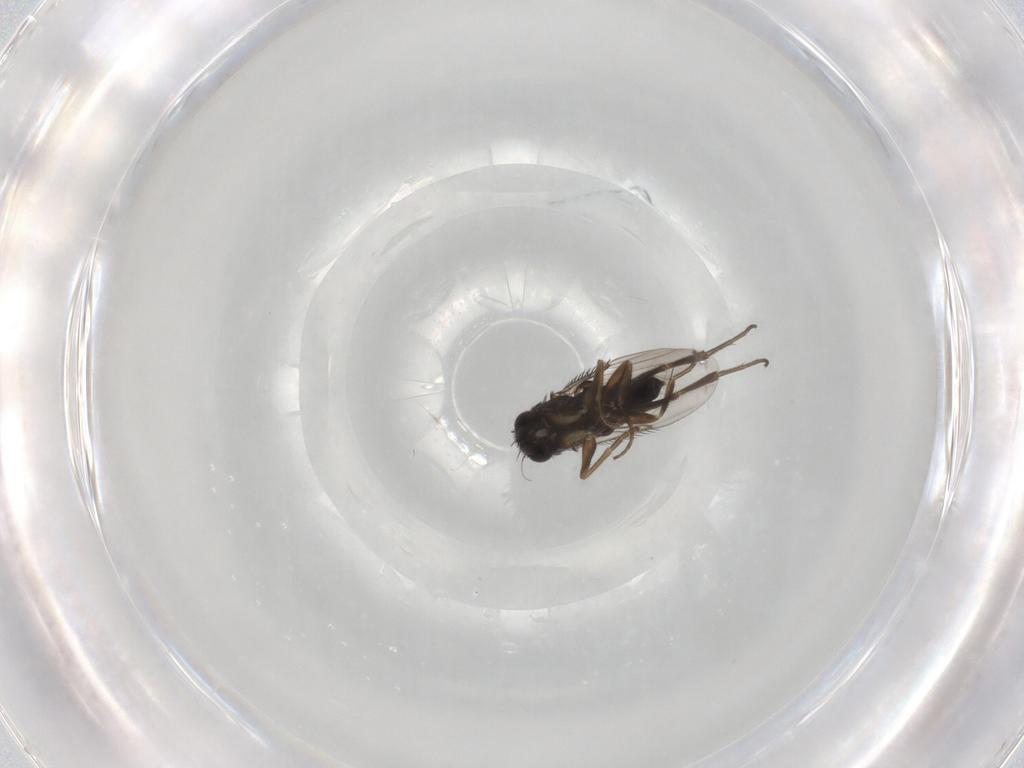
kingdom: Animalia
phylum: Arthropoda
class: Insecta
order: Diptera
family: Phoridae
